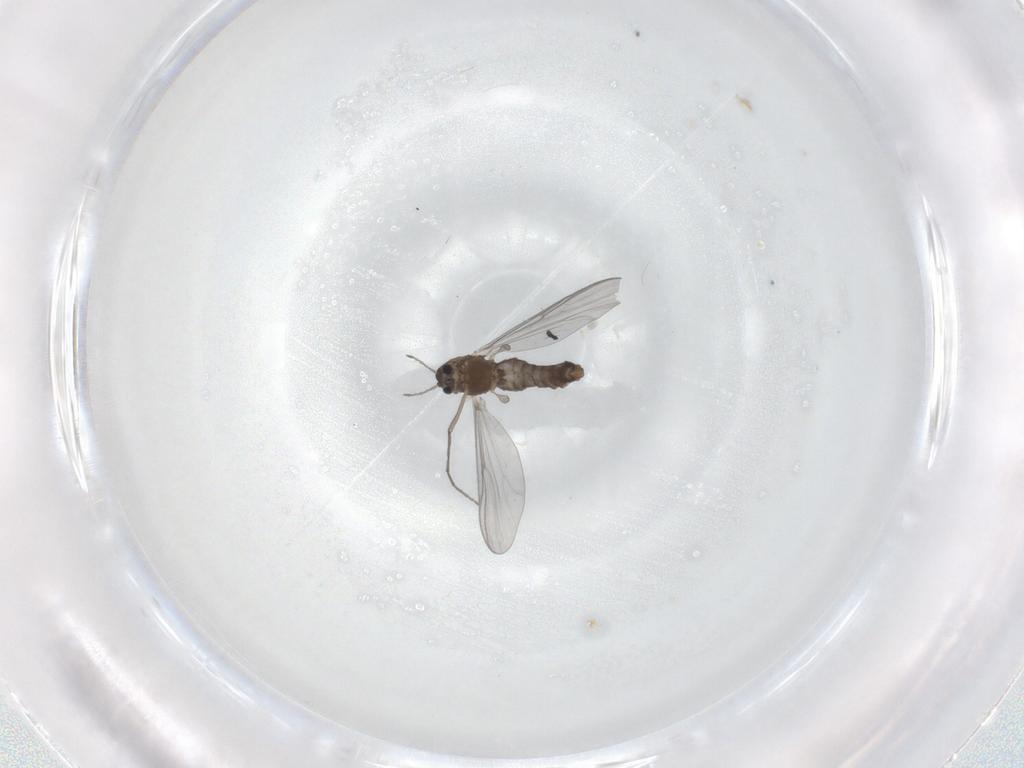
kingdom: Animalia
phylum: Arthropoda
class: Insecta
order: Diptera
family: Chironomidae
